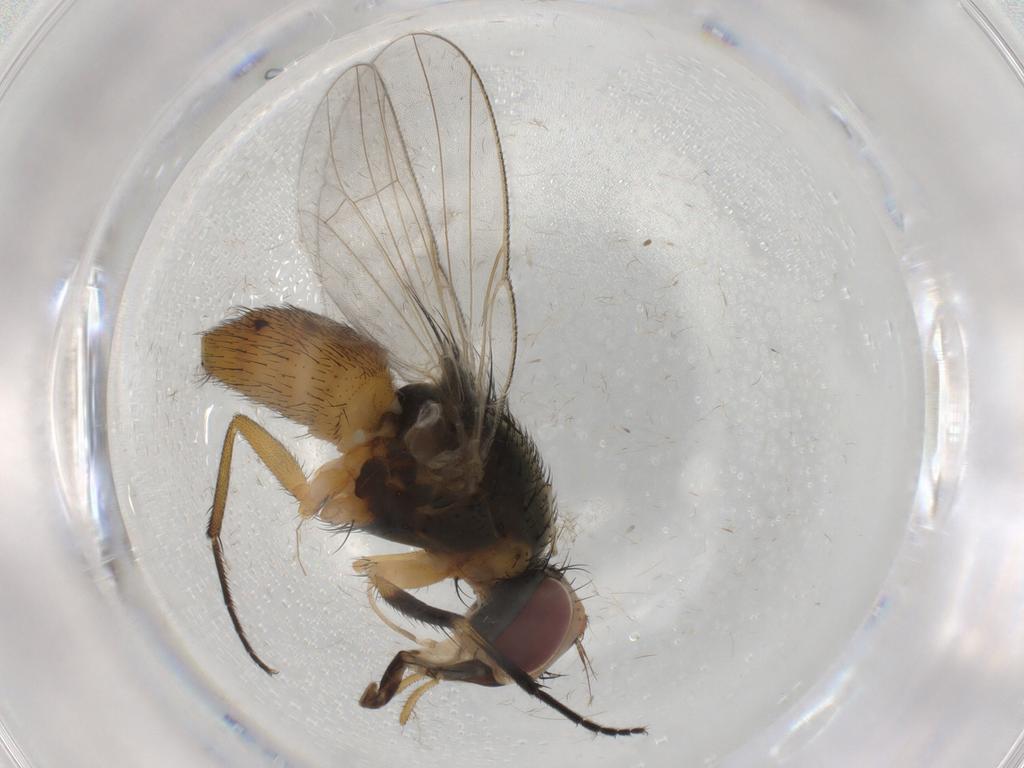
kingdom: Animalia
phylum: Arthropoda
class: Insecta
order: Diptera
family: Muscidae
